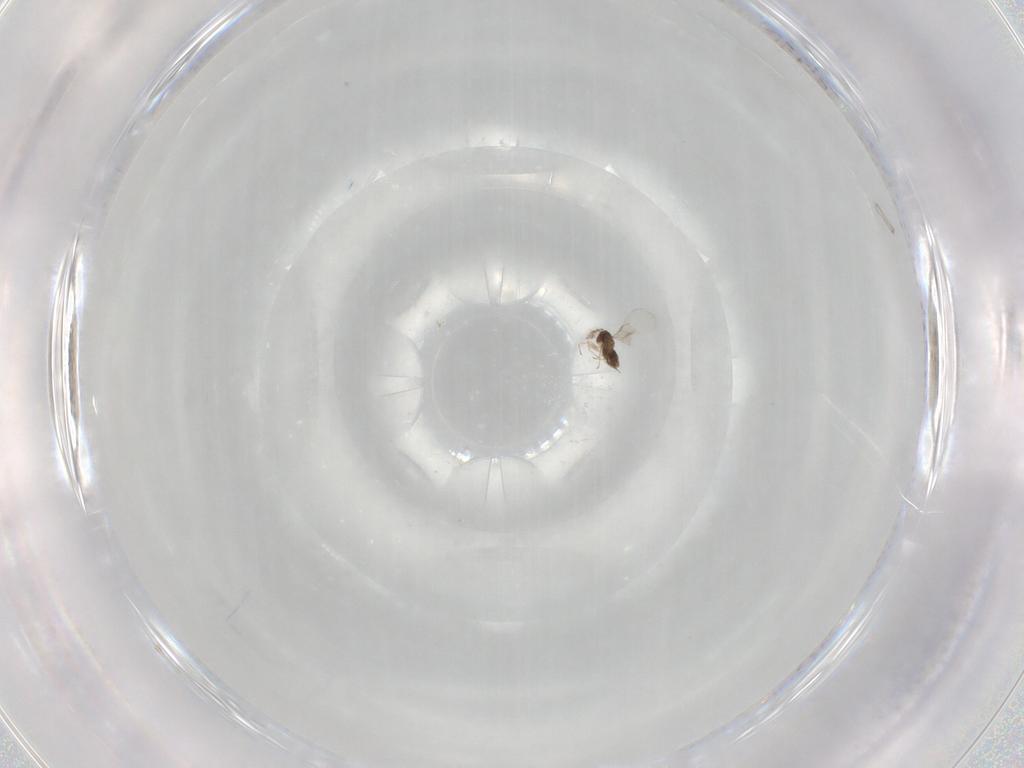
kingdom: Animalia
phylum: Arthropoda
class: Insecta
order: Hymenoptera
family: Trichogrammatidae
